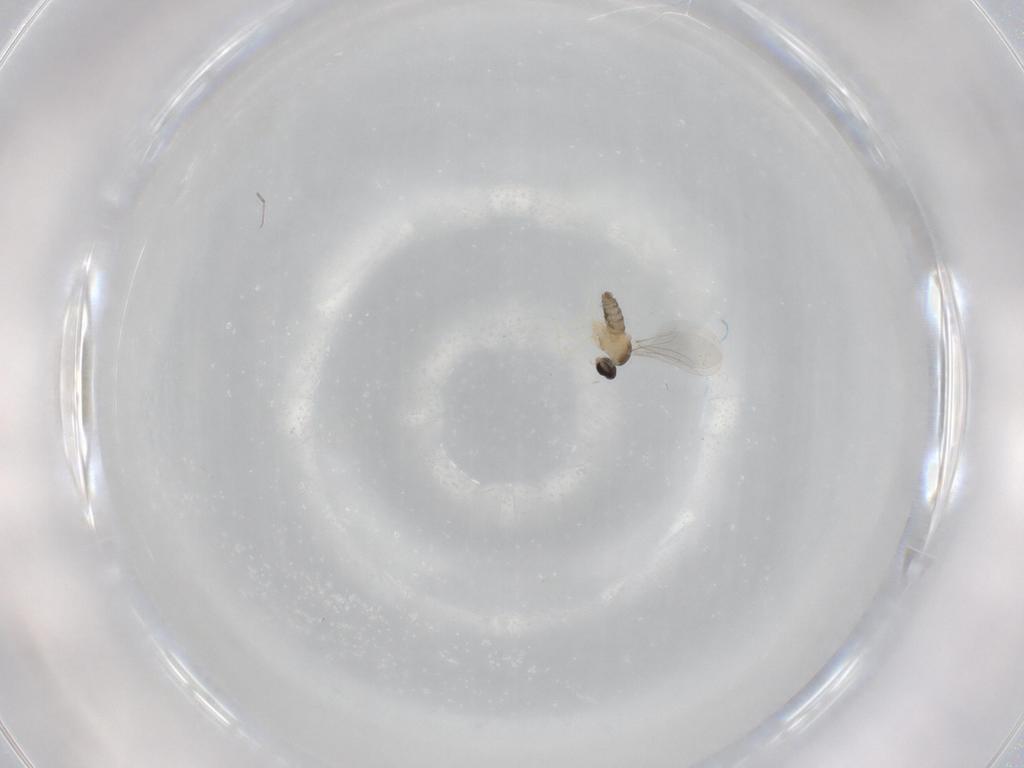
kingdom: Animalia
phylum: Arthropoda
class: Insecta
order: Diptera
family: Cecidomyiidae
